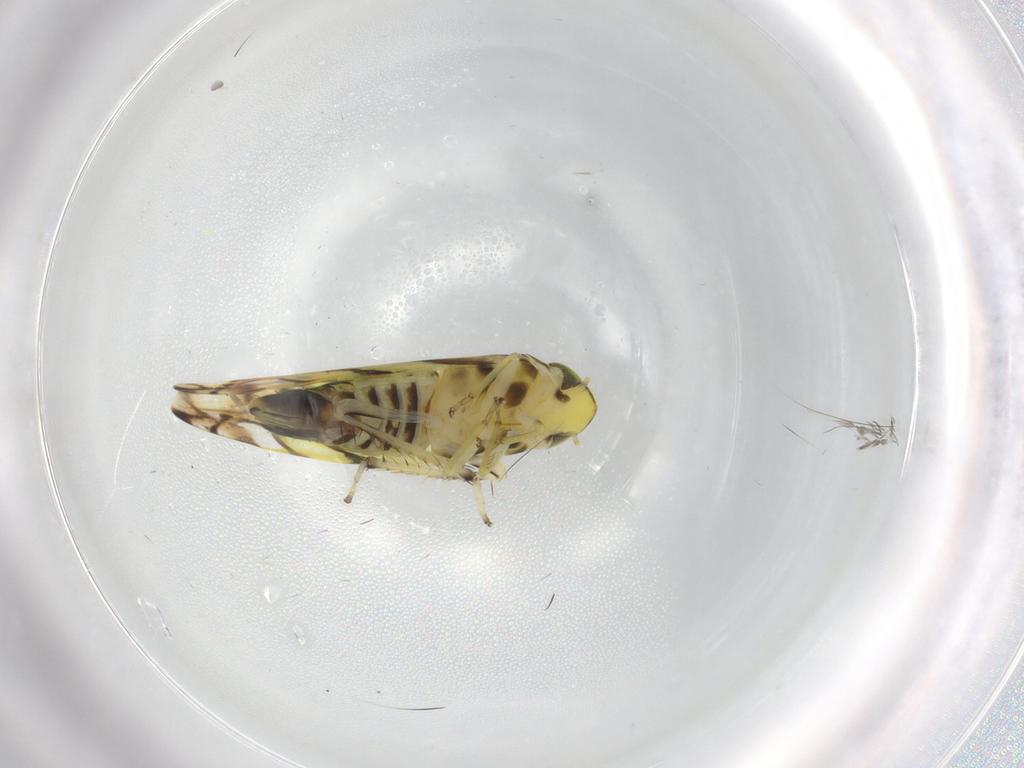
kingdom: Animalia
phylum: Arthropoda
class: Insecta
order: Hemiptera
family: Cicadellidae
